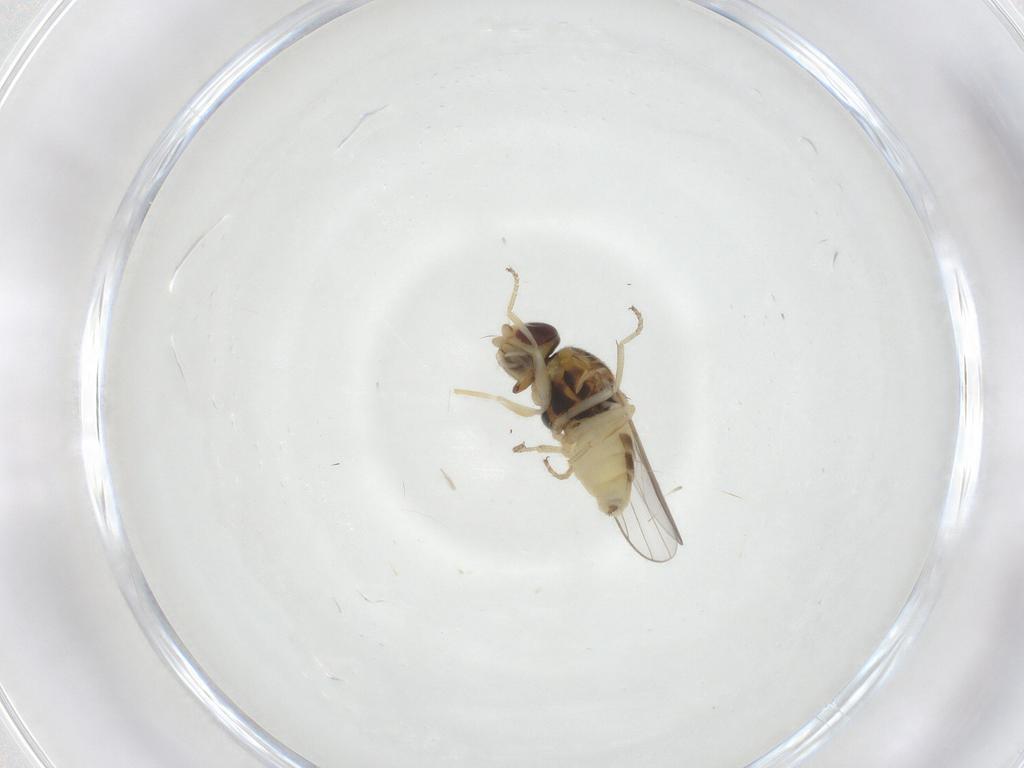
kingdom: Animalia
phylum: Arthropoda
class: Insecta
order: Diptera
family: Chloropidae
